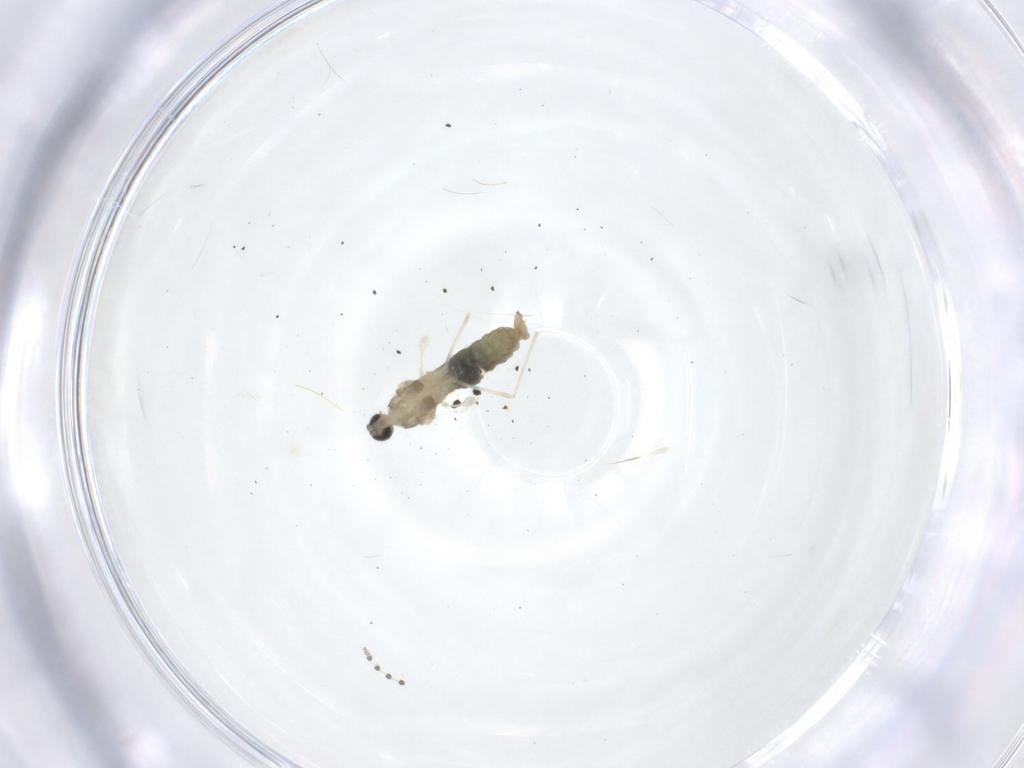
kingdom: Animalia
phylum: Arthropoda
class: Insecta
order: Diptera
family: Cecidomyiidae
